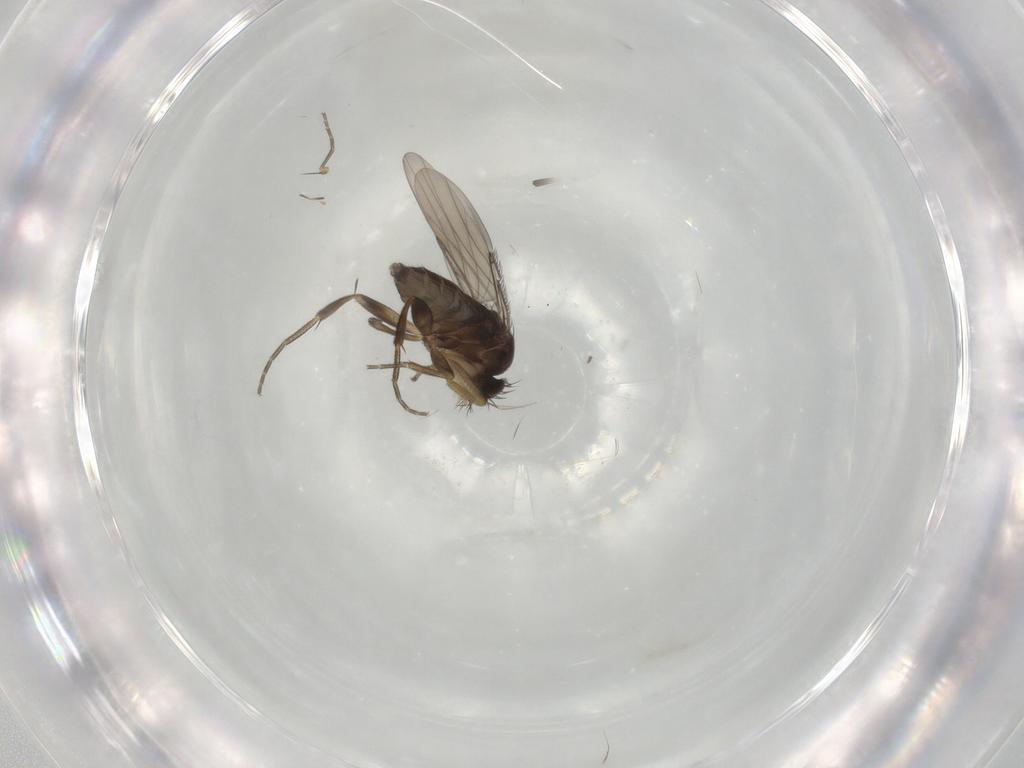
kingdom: Animalia
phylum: Arthropoda
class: Insecta
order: Diptera
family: Phoridae
